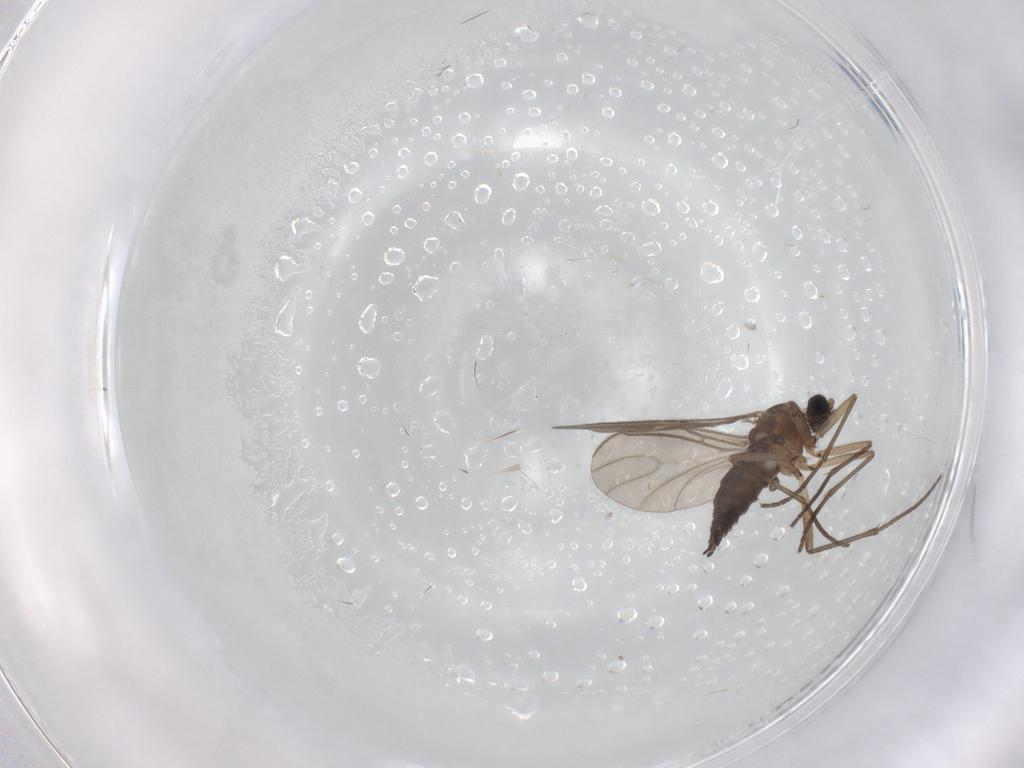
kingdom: Animalia
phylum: Arthropoda
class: Insecta
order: Diptera
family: Sciaridae
